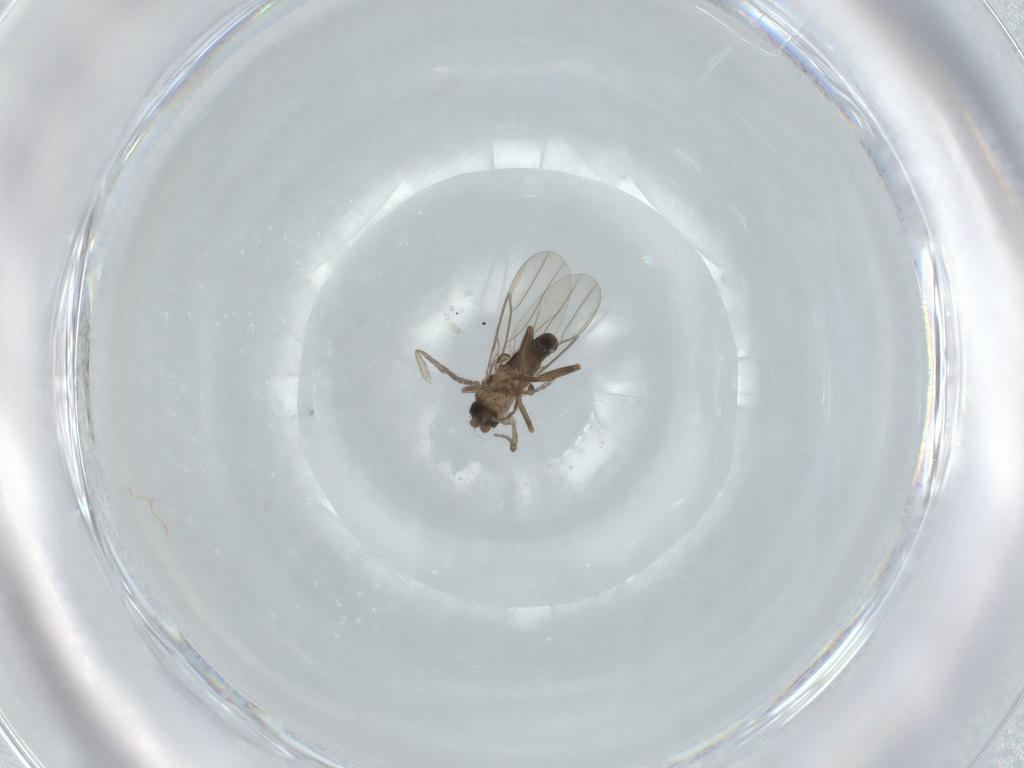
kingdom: Animalia
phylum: Arthropoda
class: Insecta
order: Diptera
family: Psychodidae
